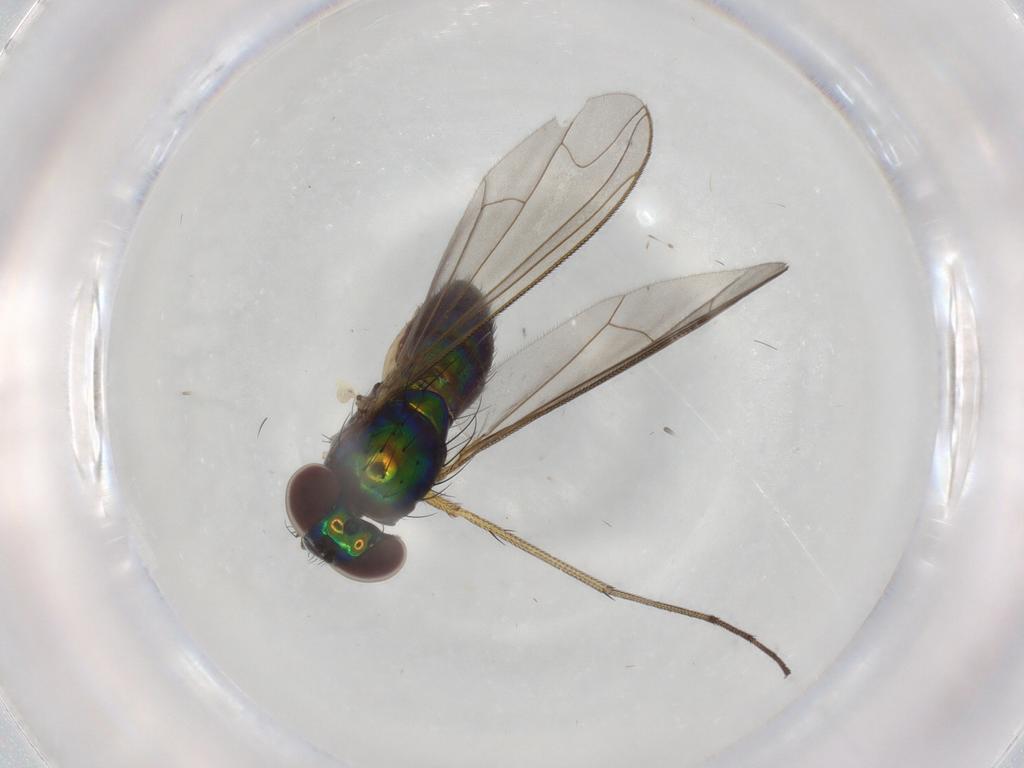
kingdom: Animalia
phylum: Arthropoda
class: Insecta
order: Diptera
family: Dolichopodidae
